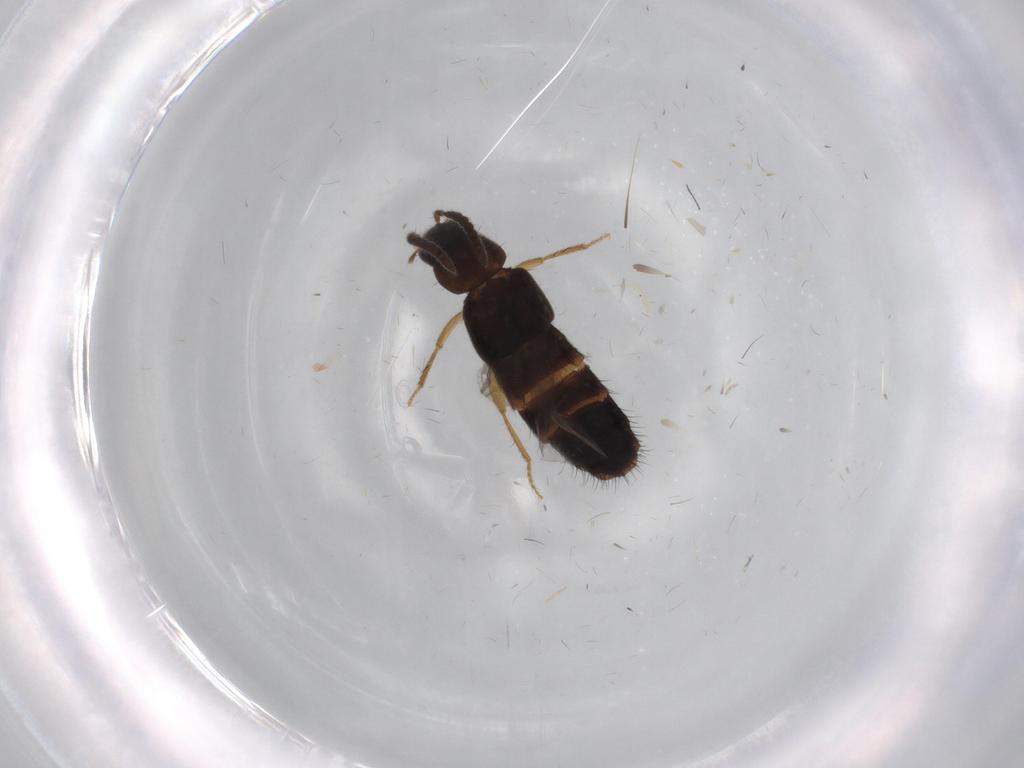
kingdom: Animalia
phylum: Arthropoda
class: Insecta
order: Coleoptera
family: Staphylinidae
